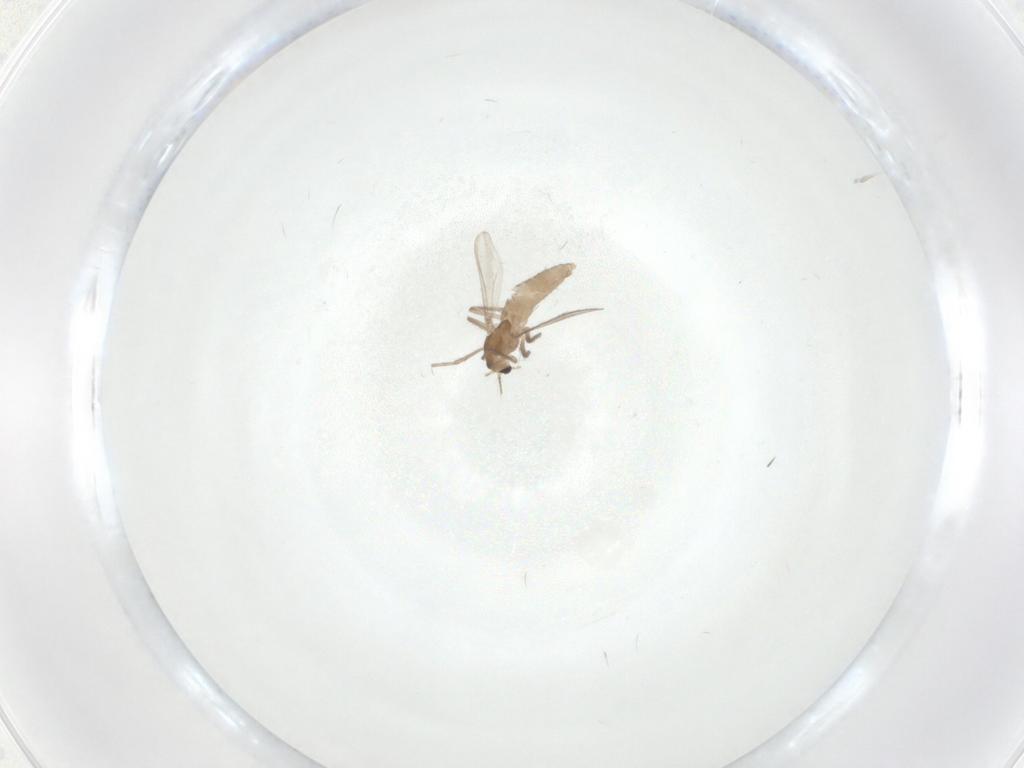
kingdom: Animalia
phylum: Arthropoda
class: Insecta
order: Diptera
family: Chironomidae
